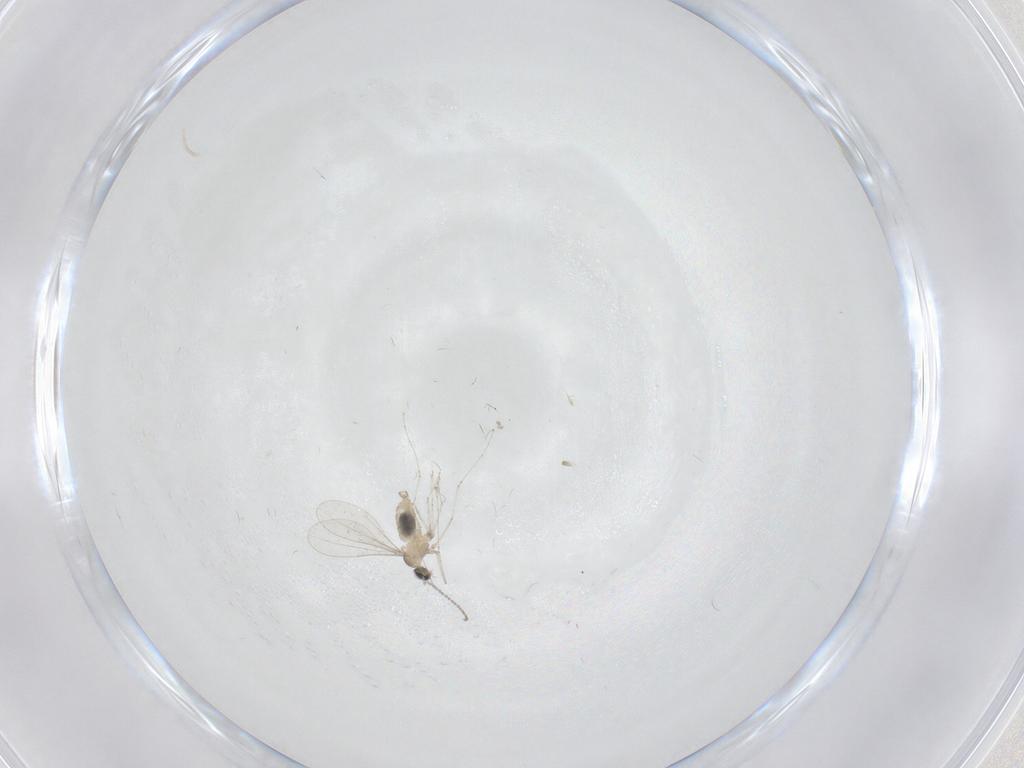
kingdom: Animalia
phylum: Arthropoda
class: Insecta
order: Diptera
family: Cecidomyiidae
